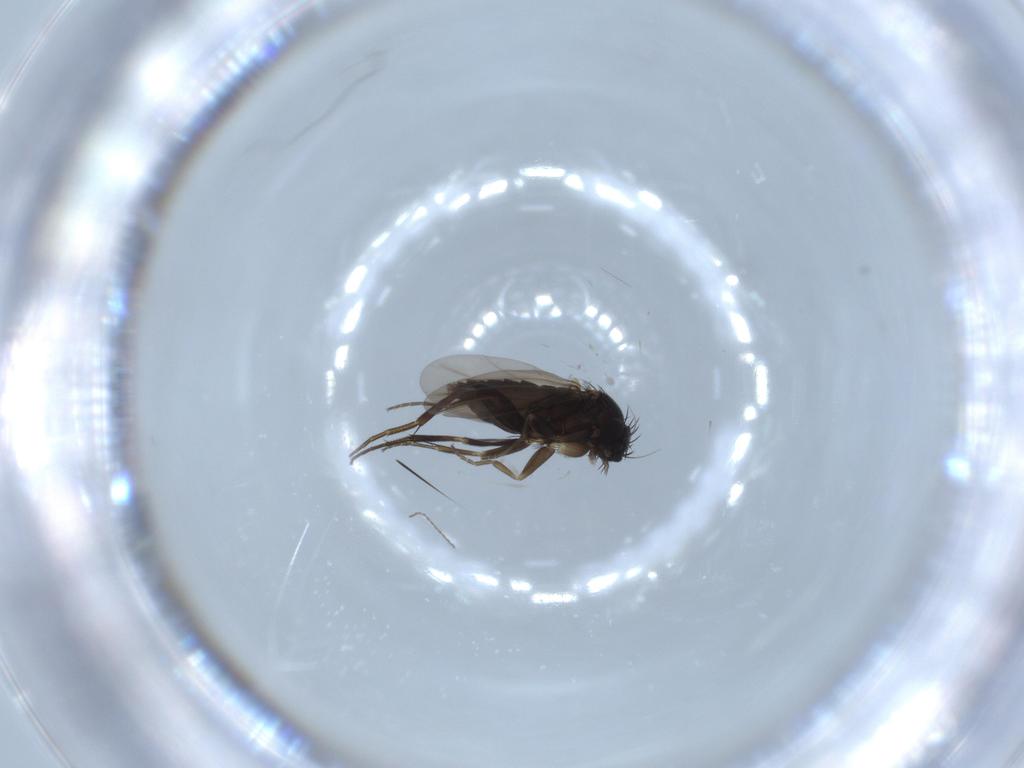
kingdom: Animalia
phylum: Arthropoda
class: Insecta
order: Diptera
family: Phoridae
